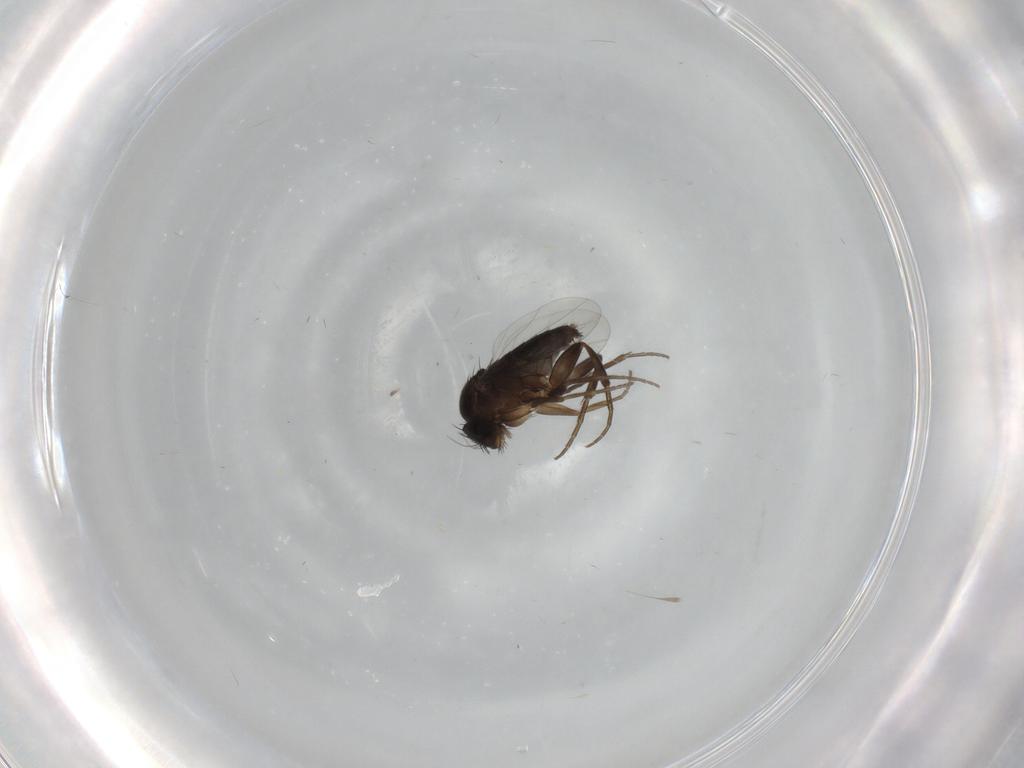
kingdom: Animalia
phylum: Arthropoda
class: Insecta
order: Diptera
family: Phoridae
